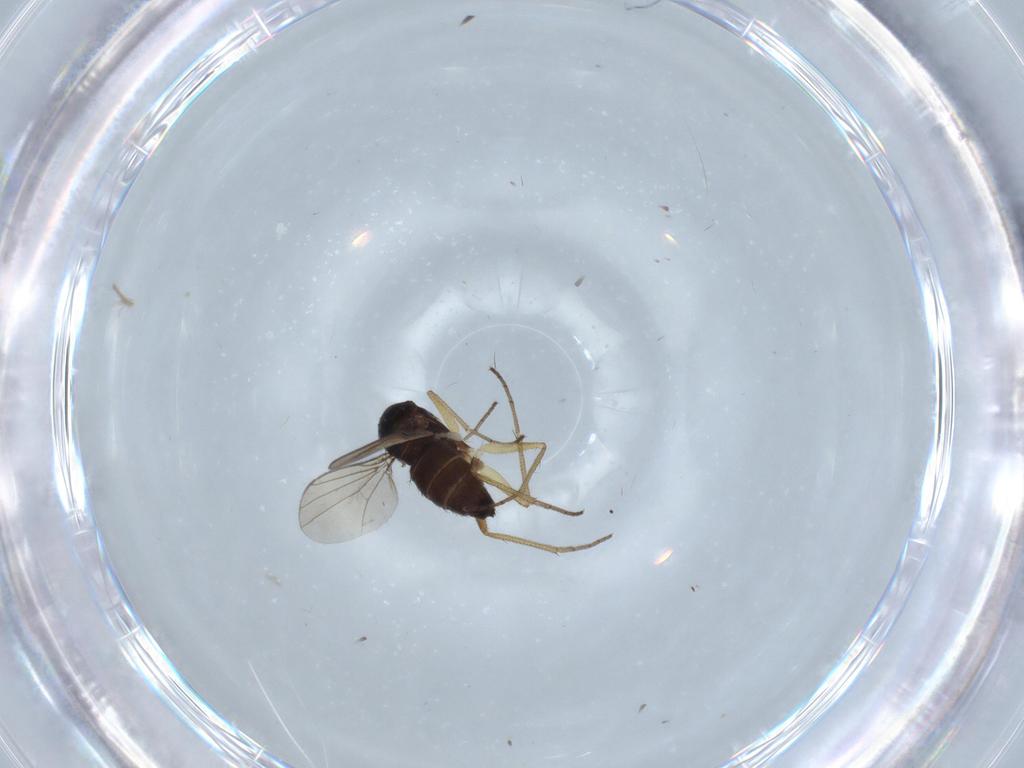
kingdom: Animalia
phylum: Arthropoda
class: Insecta
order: Diptera
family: Dolichopodidae
